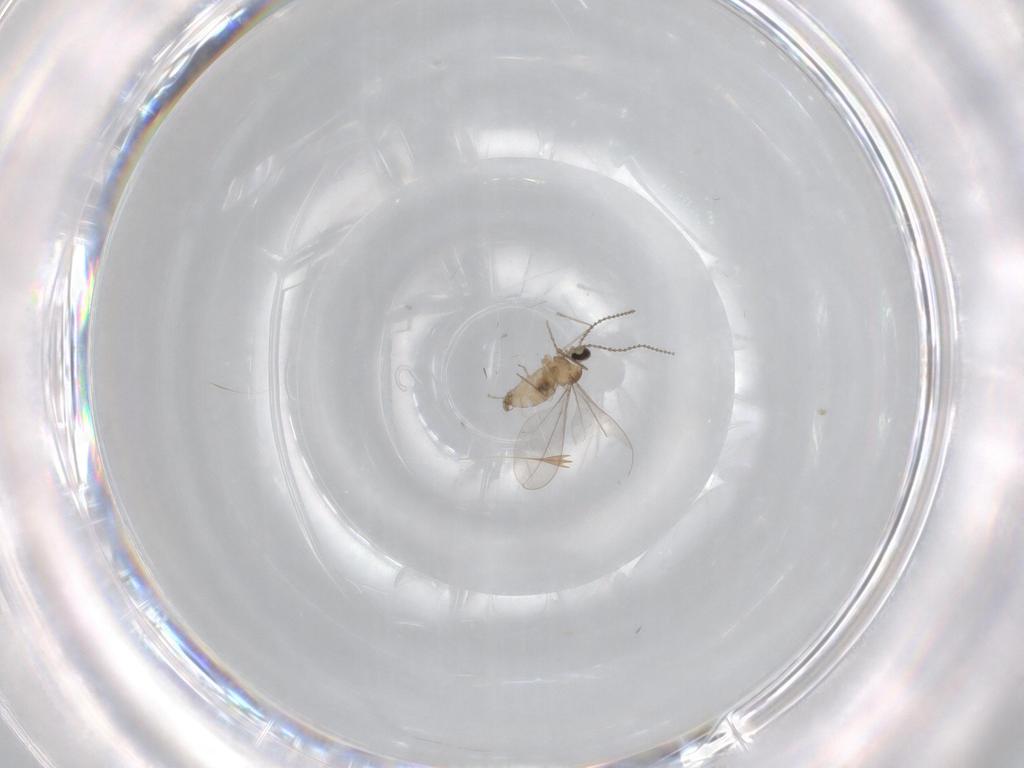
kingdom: Animalia
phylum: Arthropoda
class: Insecta
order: Diptera
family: Cecidomyiidae
